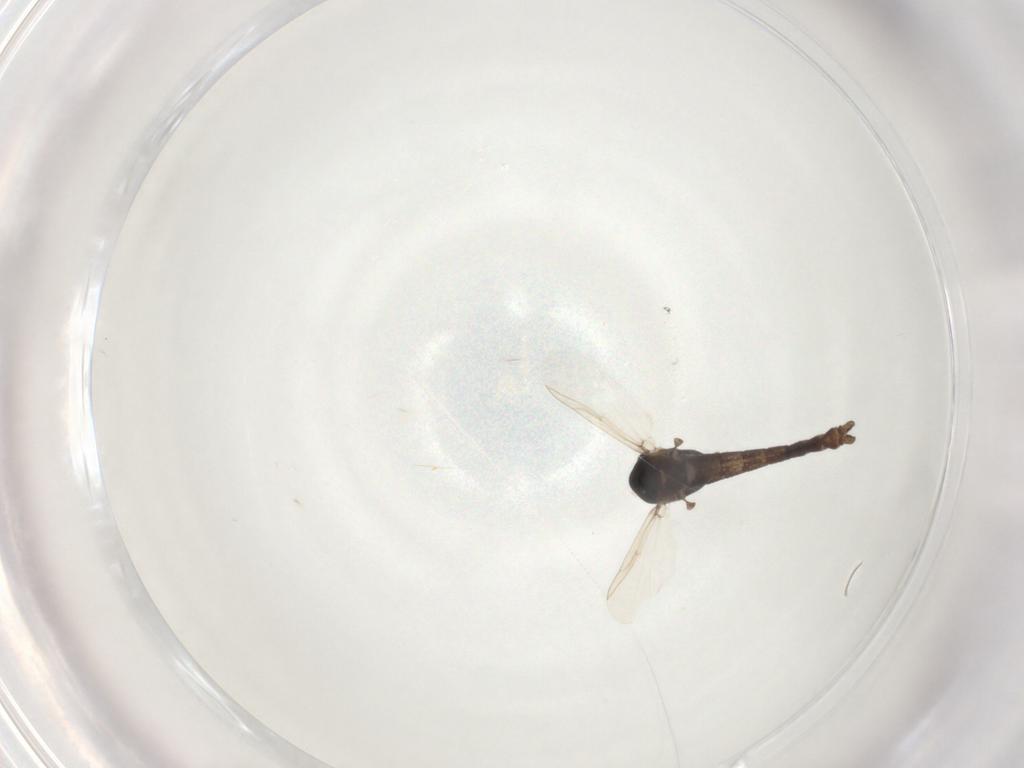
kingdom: Animalia
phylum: Arthropoda
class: Insecta
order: Diptera
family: Chironomidae
